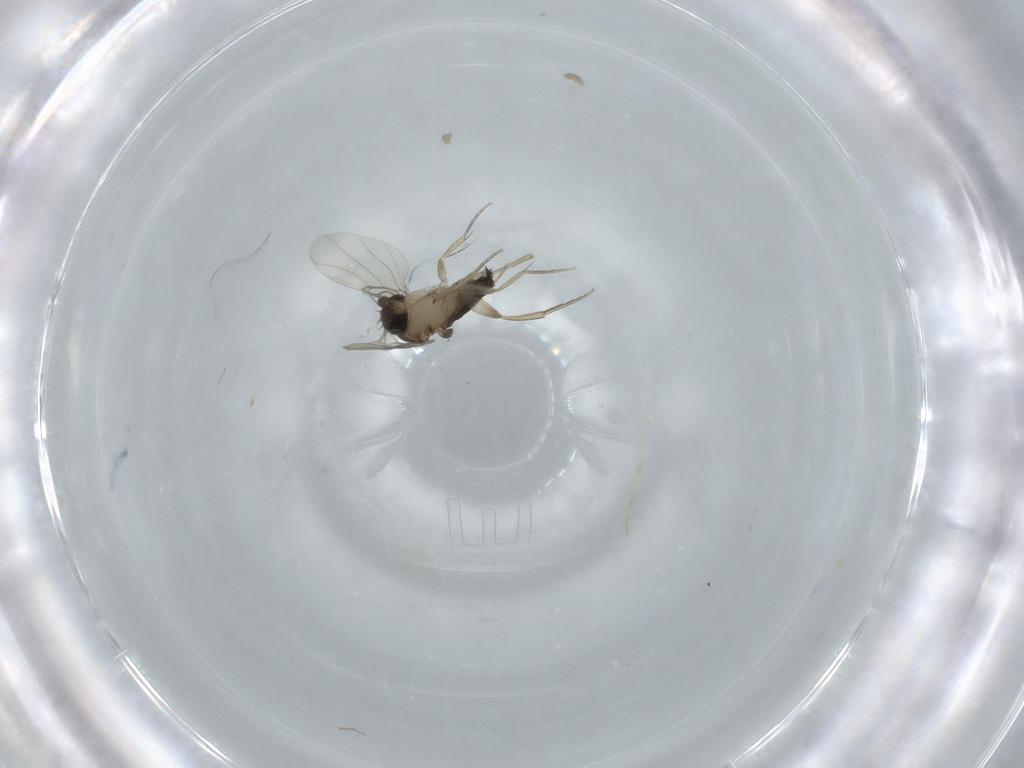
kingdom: Animalia
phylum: Arthropoda
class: Insecta
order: Diptera
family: Phoridae
